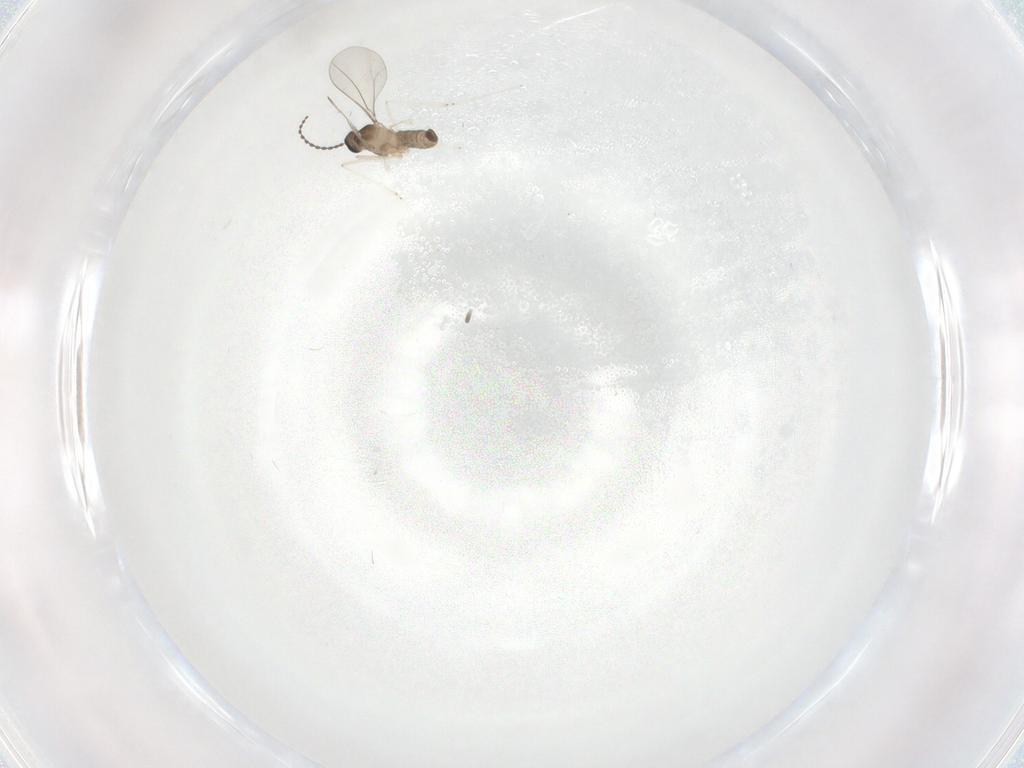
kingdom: Animalia
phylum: Arthropoda
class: Insecta
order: Diptera
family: Cecidomyiidae
